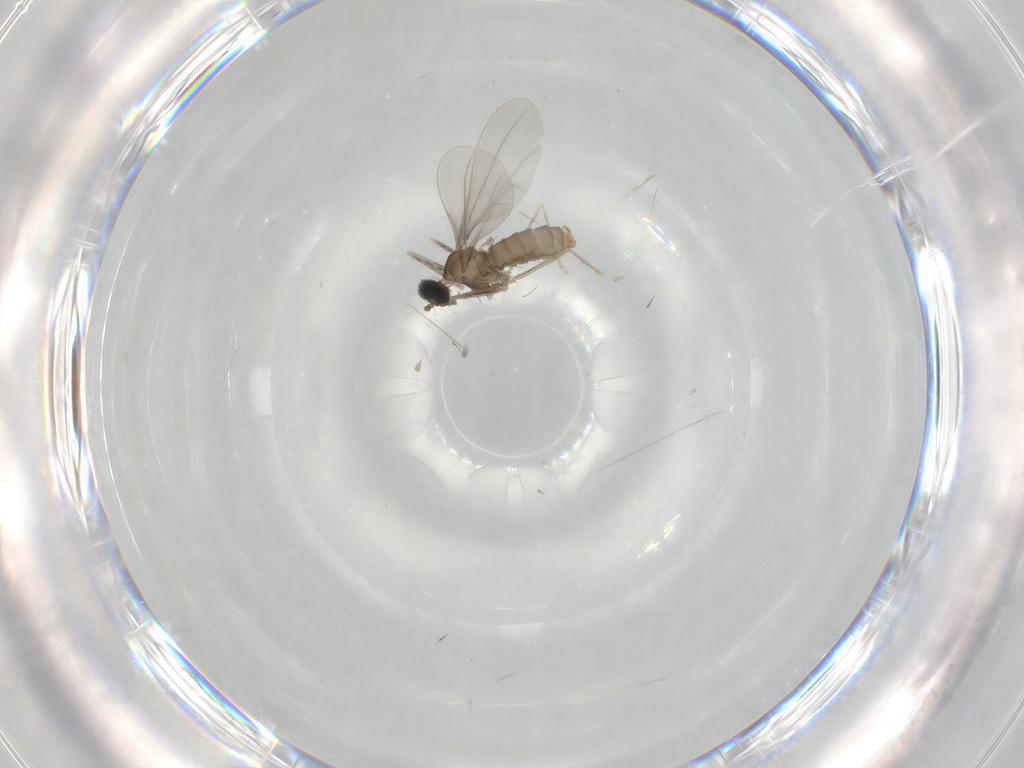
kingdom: Animalia
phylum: Arthropoda
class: Insecta
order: Diptera
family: Cecidomyiidae
